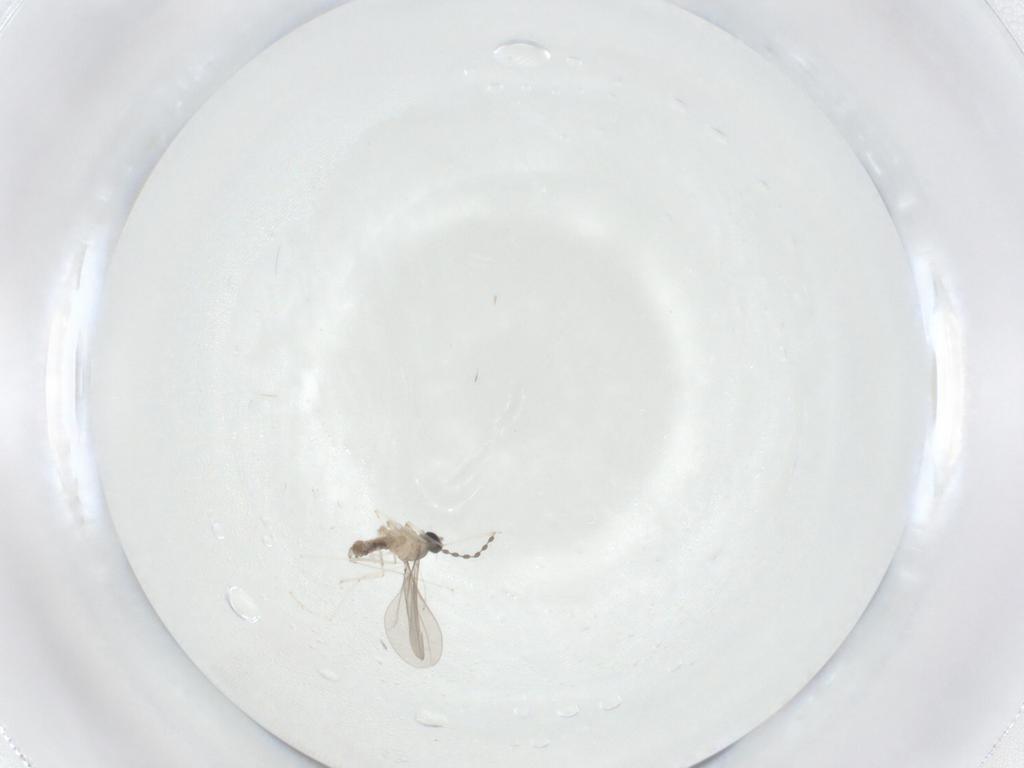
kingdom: Animalia
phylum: Arthropoda
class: Insecta
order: Diptera
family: Cecidomyiidae
